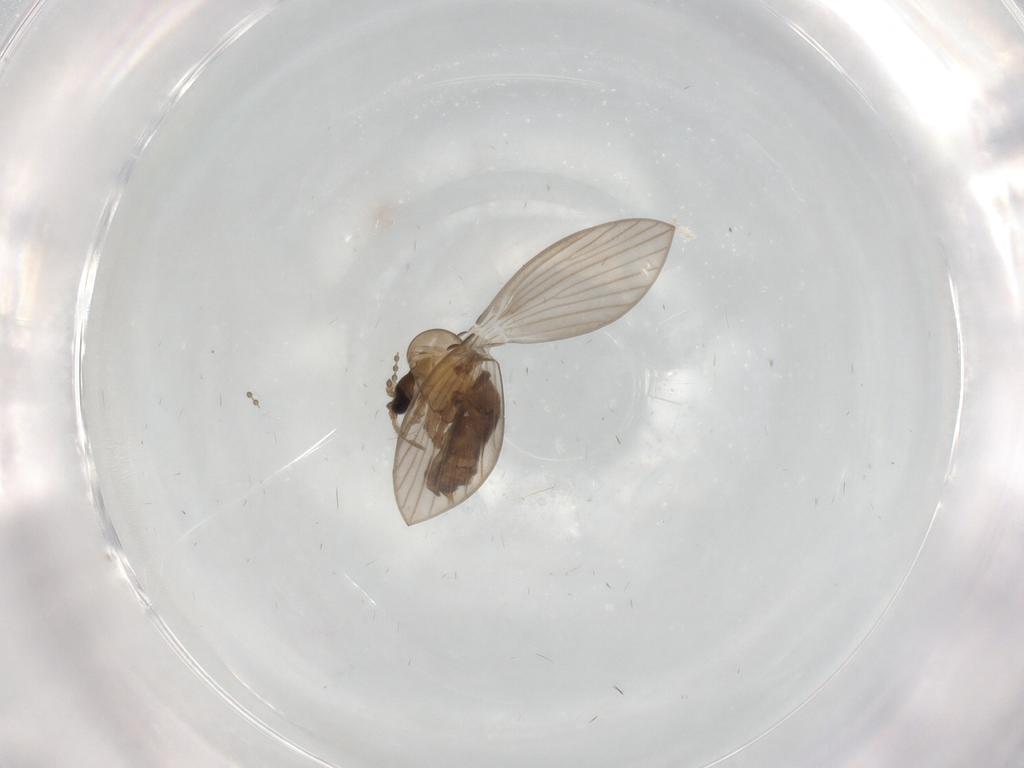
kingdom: Animalia
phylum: Arthropoda
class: Insecta
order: Diptera
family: Psychodidae
